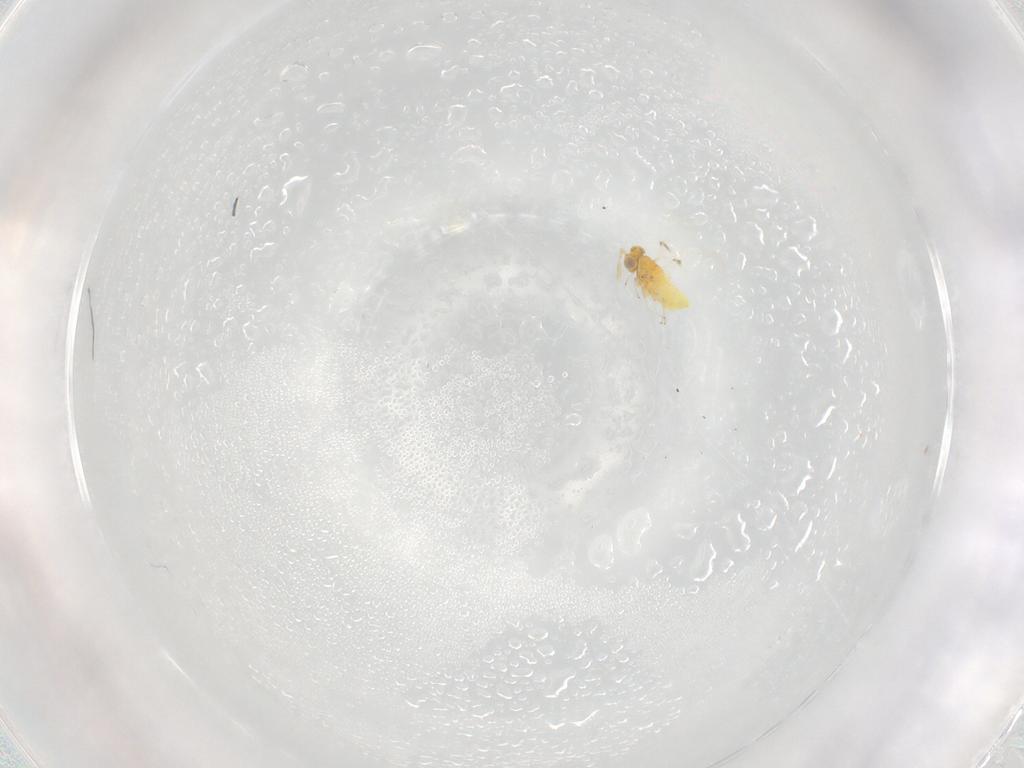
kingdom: Animalia
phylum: Arthropoda
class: Insecta
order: Hymenoptera
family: Trichogrammatidae
